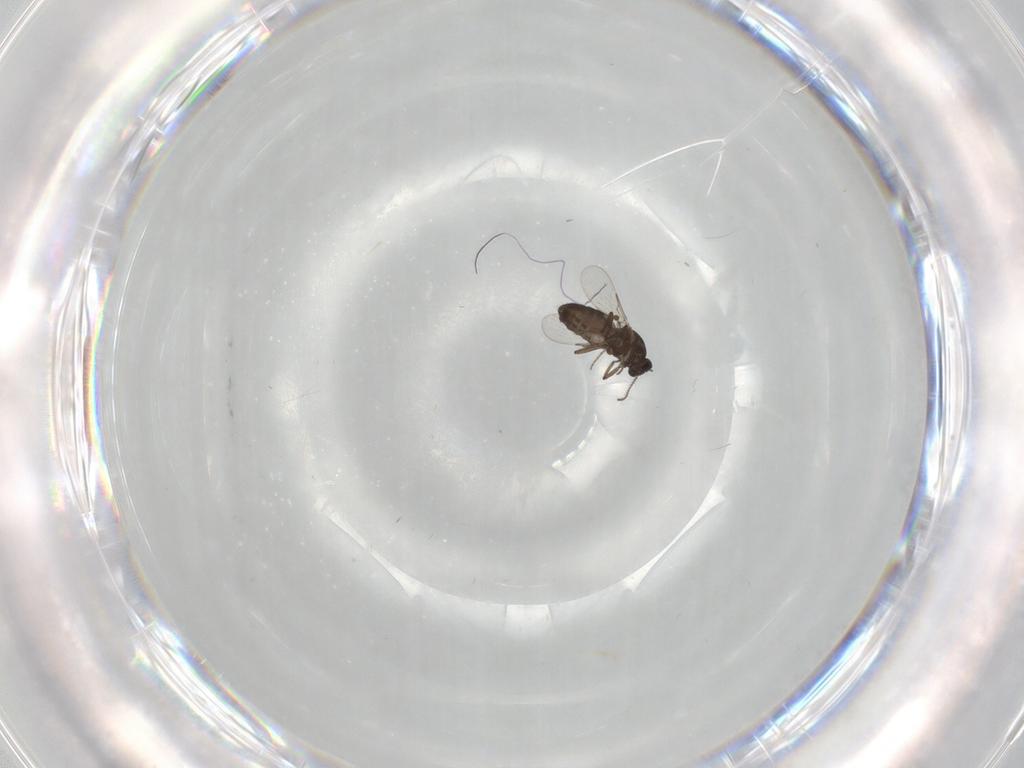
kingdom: Animalia
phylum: Arthropoda
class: Insecta
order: Diptera
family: Ceratopogonidae
